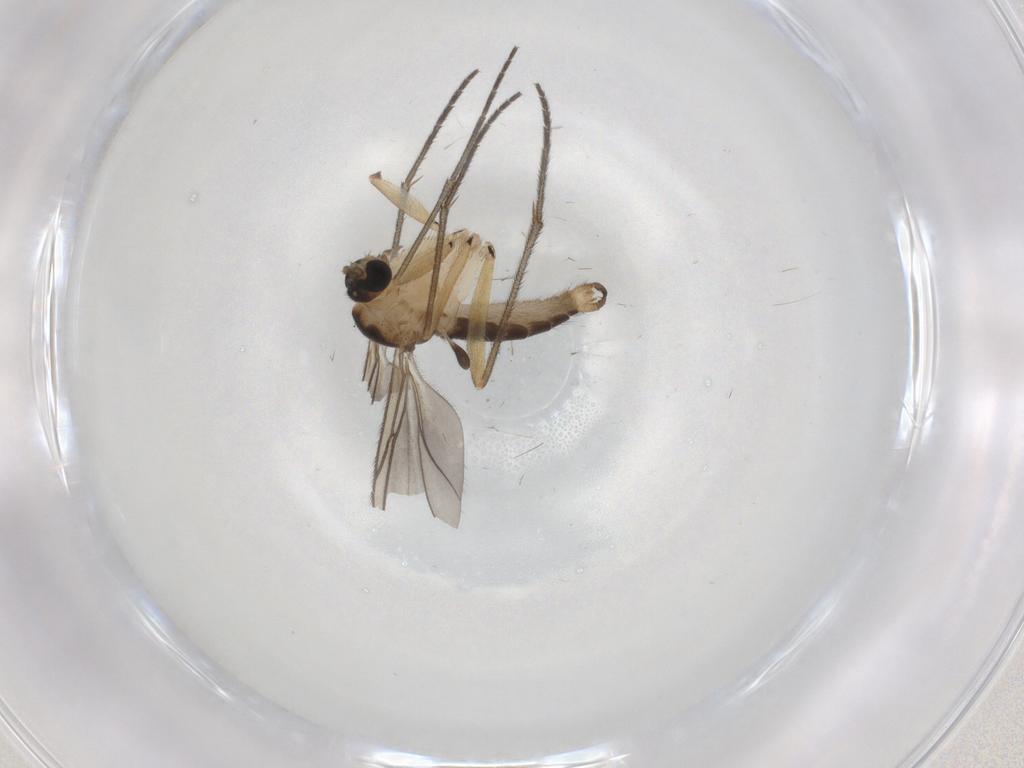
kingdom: Animalia
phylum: Arthropoda
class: Insecta
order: Diptera
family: Sciaridae
